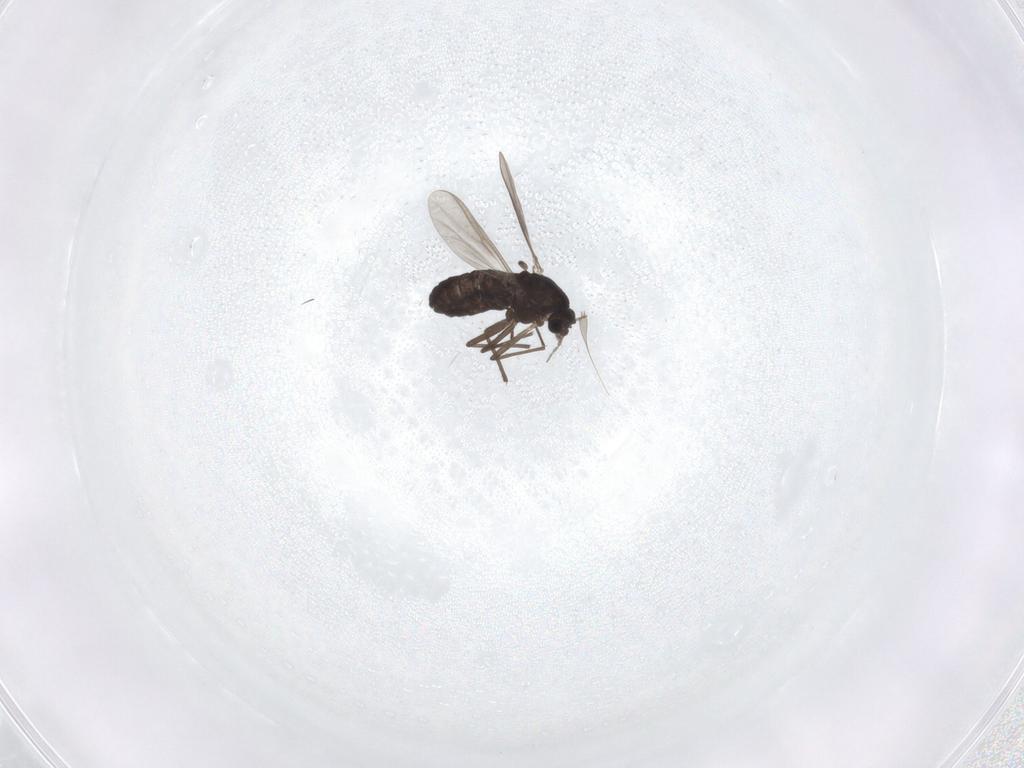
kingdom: Animalia
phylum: Arthropoda
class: Insecta
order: Diptera
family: Chironomidae
